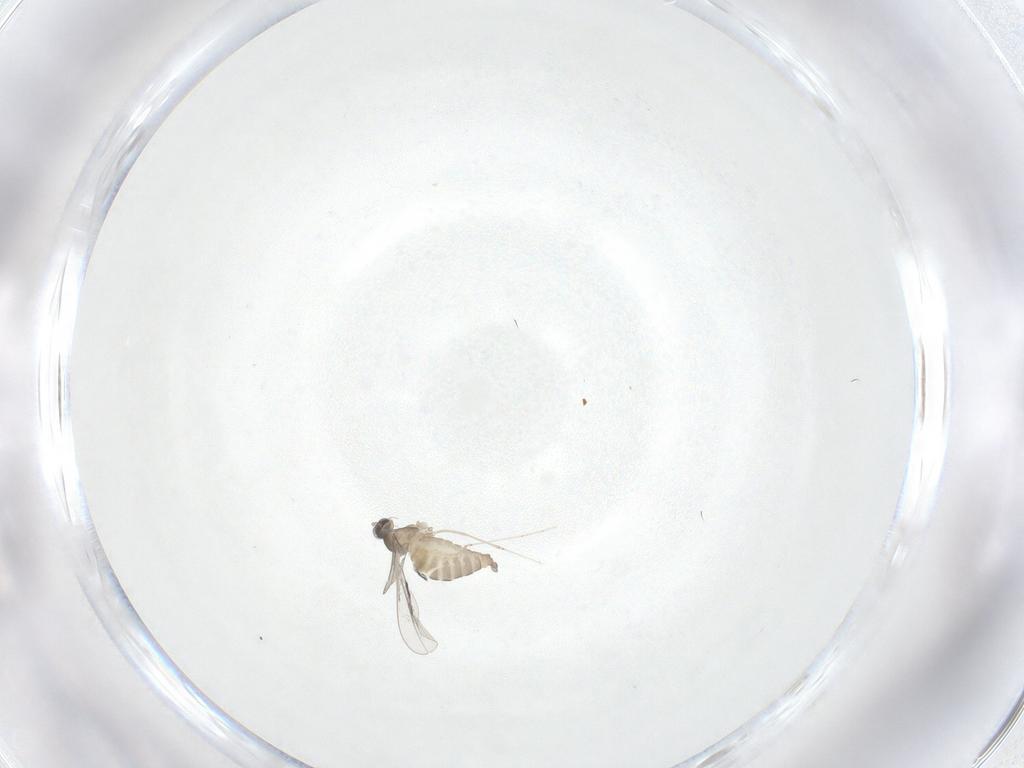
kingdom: Animalia
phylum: Arthropoda
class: Insecta
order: Diptera
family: Cecidomyiidae
